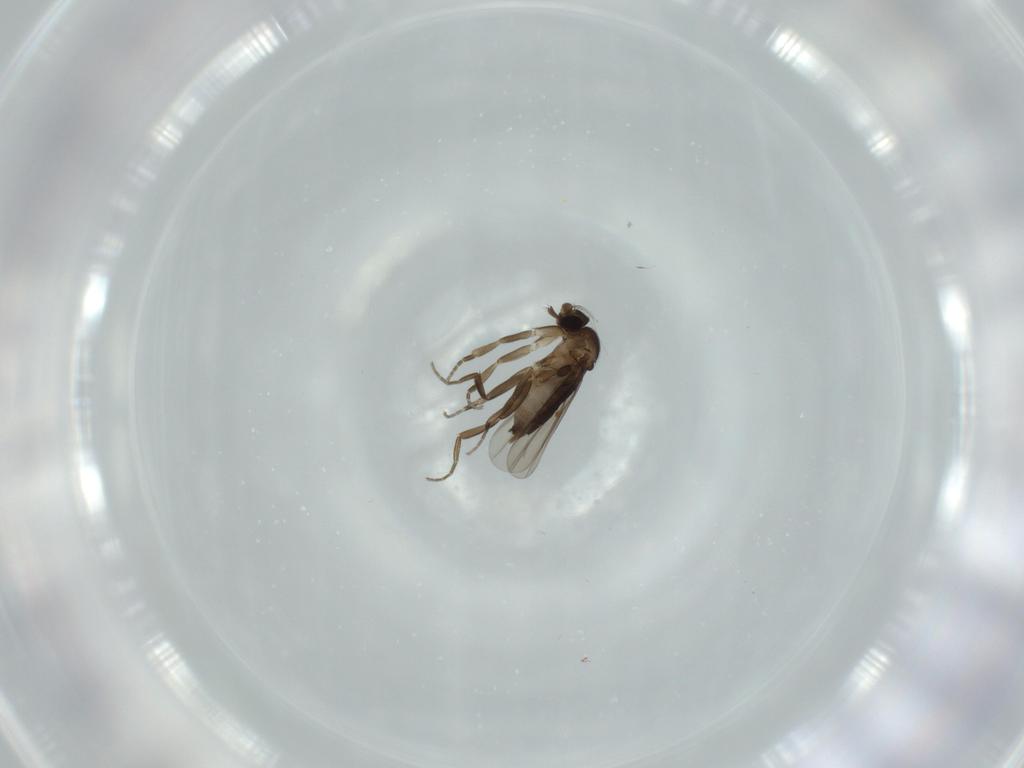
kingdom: Animalia
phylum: Arthropoda
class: Insecta
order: Diptera
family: Phoridae
